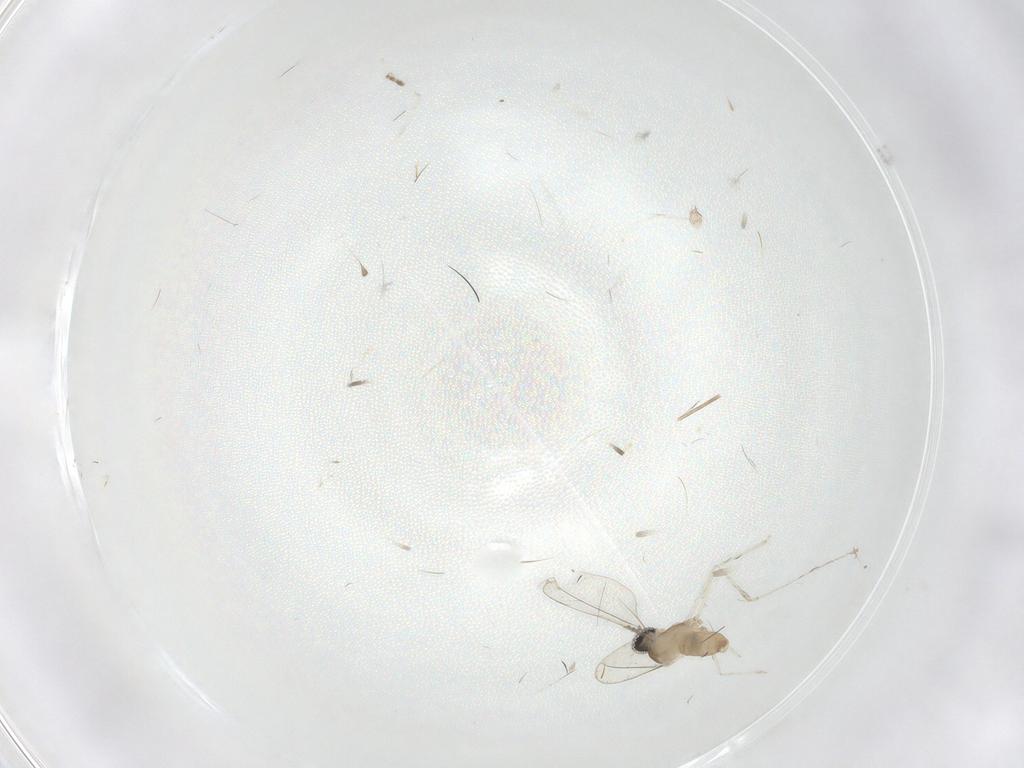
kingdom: Animalia
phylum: Arthropoda
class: Insecta
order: Diptera
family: Cecidomyiidae
